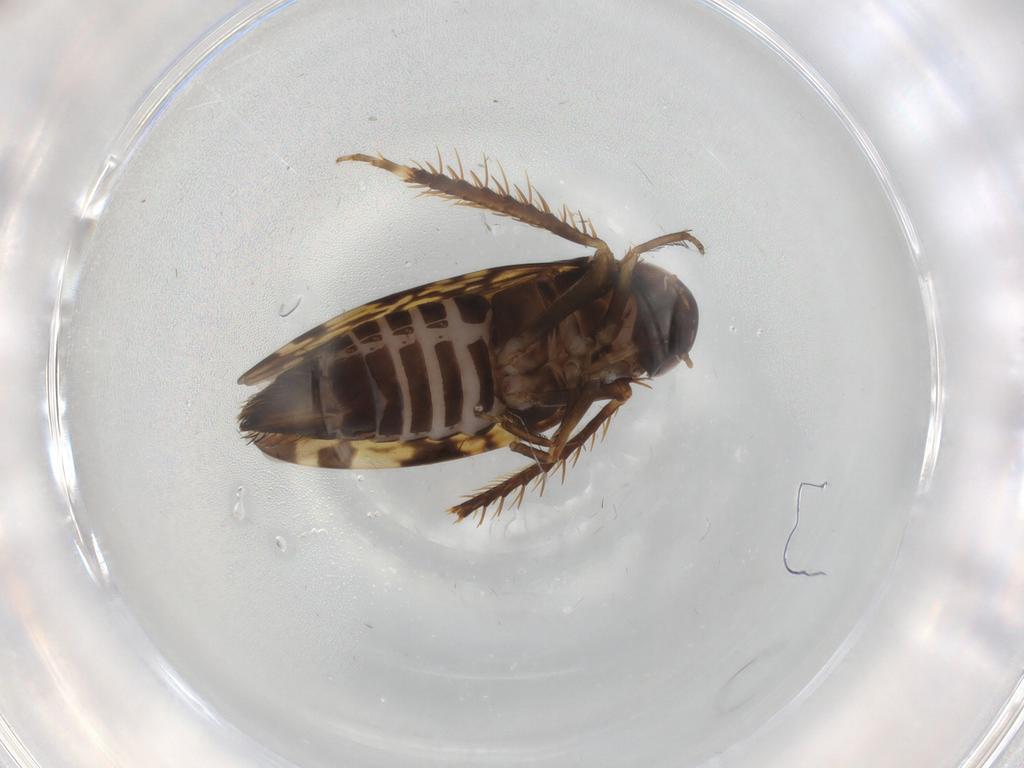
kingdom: Animalia
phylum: Arthropoda
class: Insecta
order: Hemiptera
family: Cicadellidae
